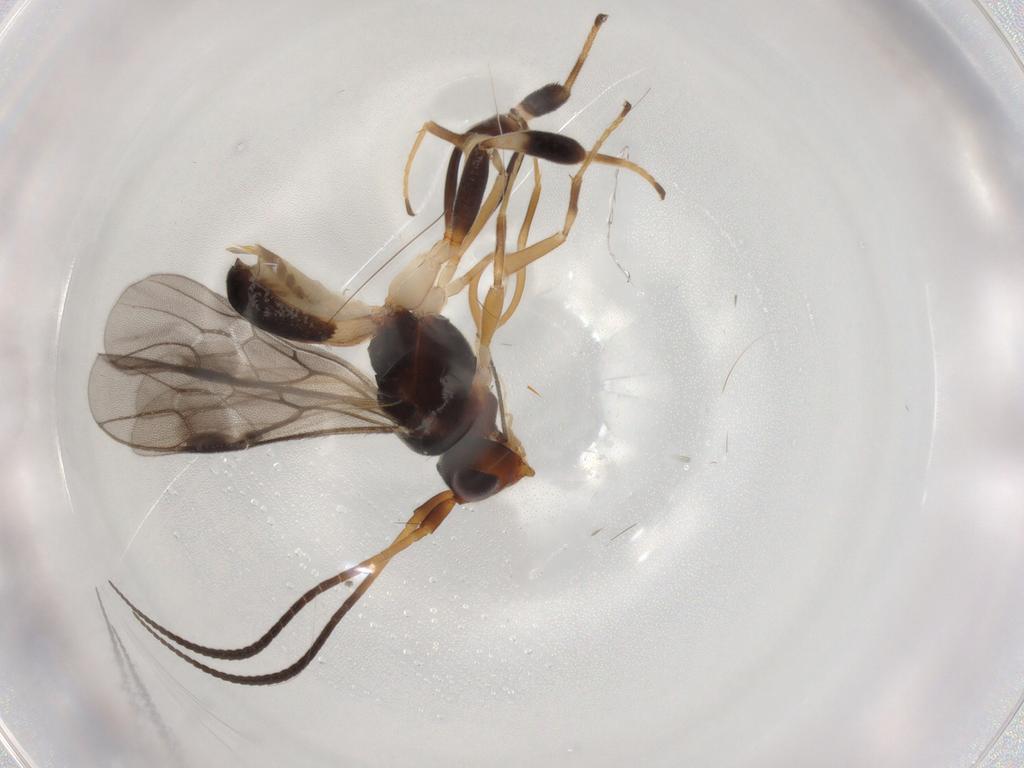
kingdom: Animalia
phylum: Arthropoda
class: Insecta
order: Hymenoptera
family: Braconidae
